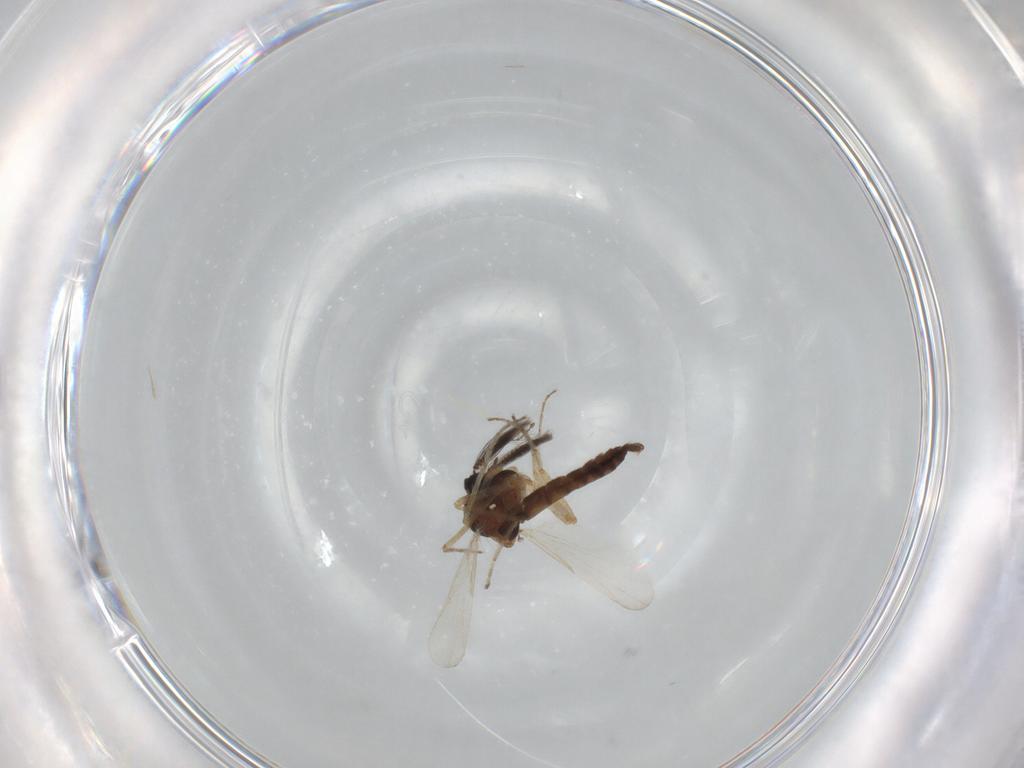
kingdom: Animalia
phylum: Arthropoda
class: Insecta
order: Diptera
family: Ceratopogonidae
